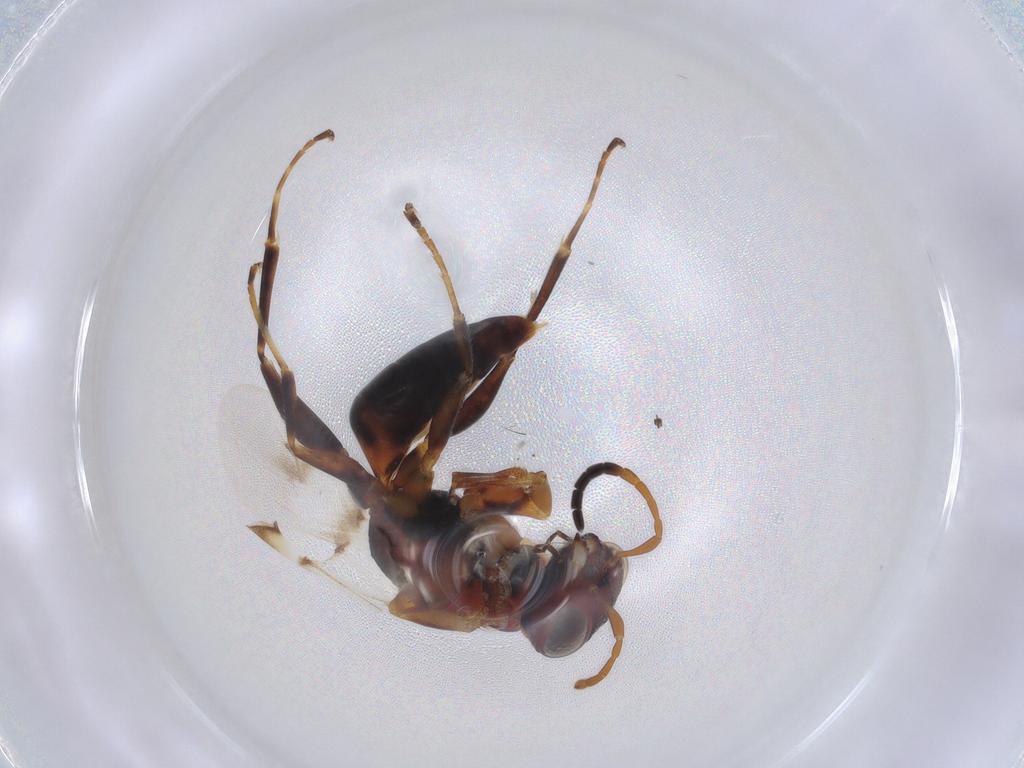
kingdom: Animalia
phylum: Arthropoda
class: Insecta
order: Hymenoptera
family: Dryinidae
